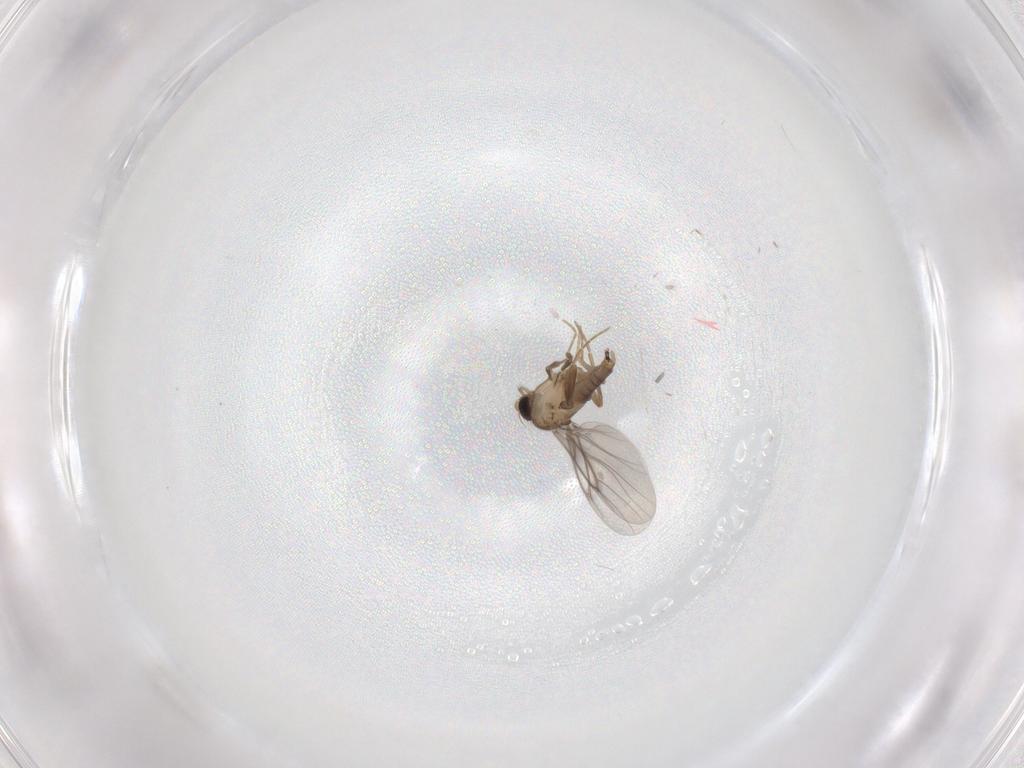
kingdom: Animalia
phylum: Arthropoda
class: Insecta
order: Diptera
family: Cecidomyiidae
